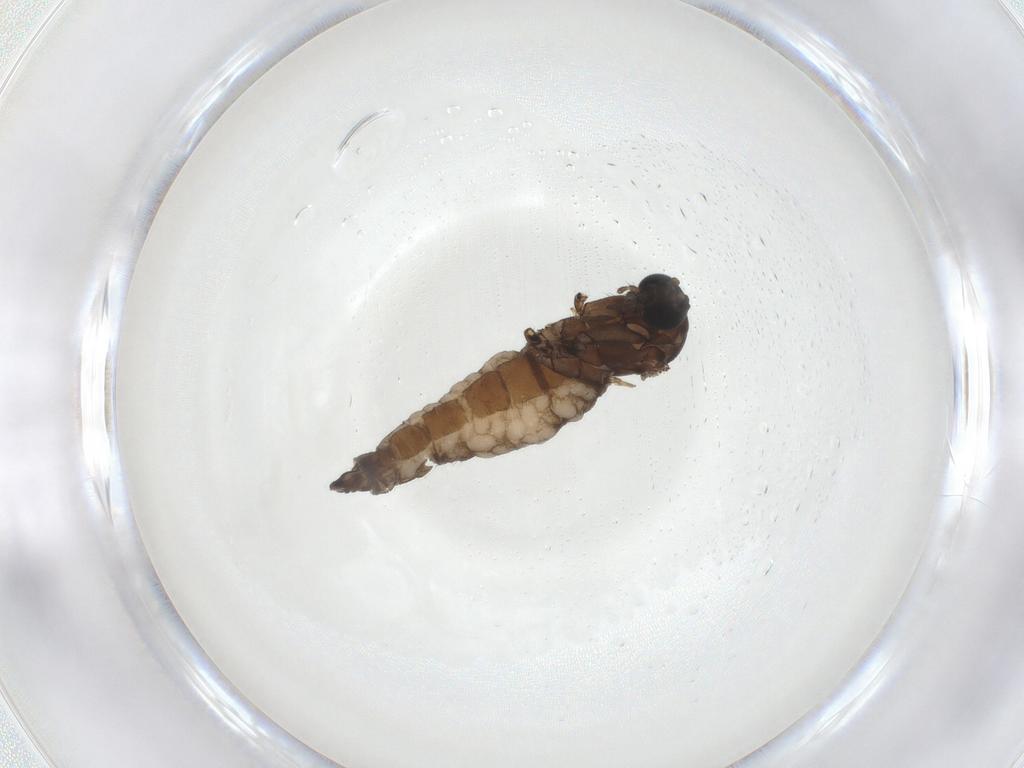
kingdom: Animalia
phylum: Arthropoda
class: Insecta
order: Diptera
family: Sciaridae
